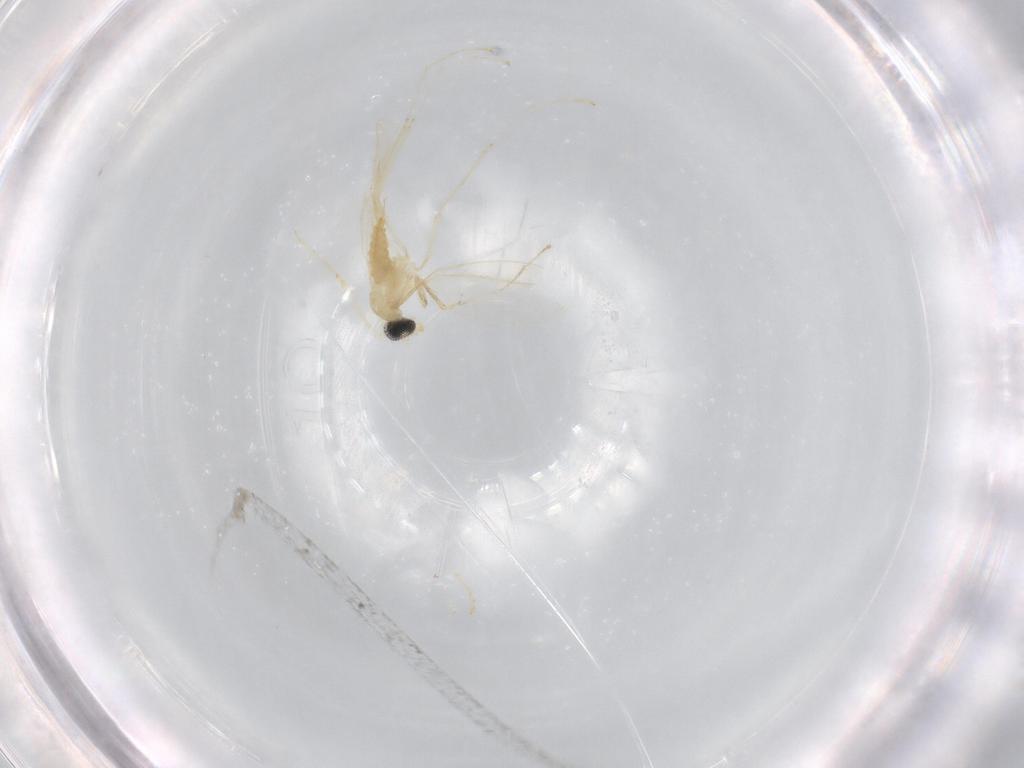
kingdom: Animalia
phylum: Arthropoda
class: Insecta
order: Diptera
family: Cecidomyiidae
